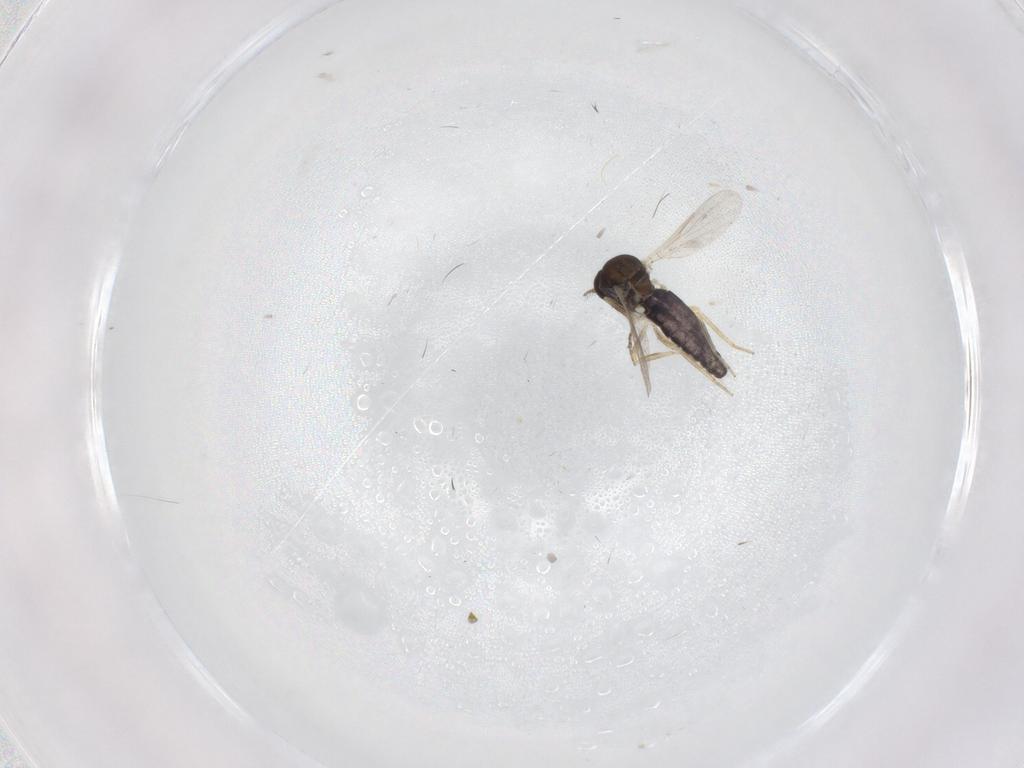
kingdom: Animalia
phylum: Arthropoda
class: Insecta
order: Diptera
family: Ceratopogonidae
